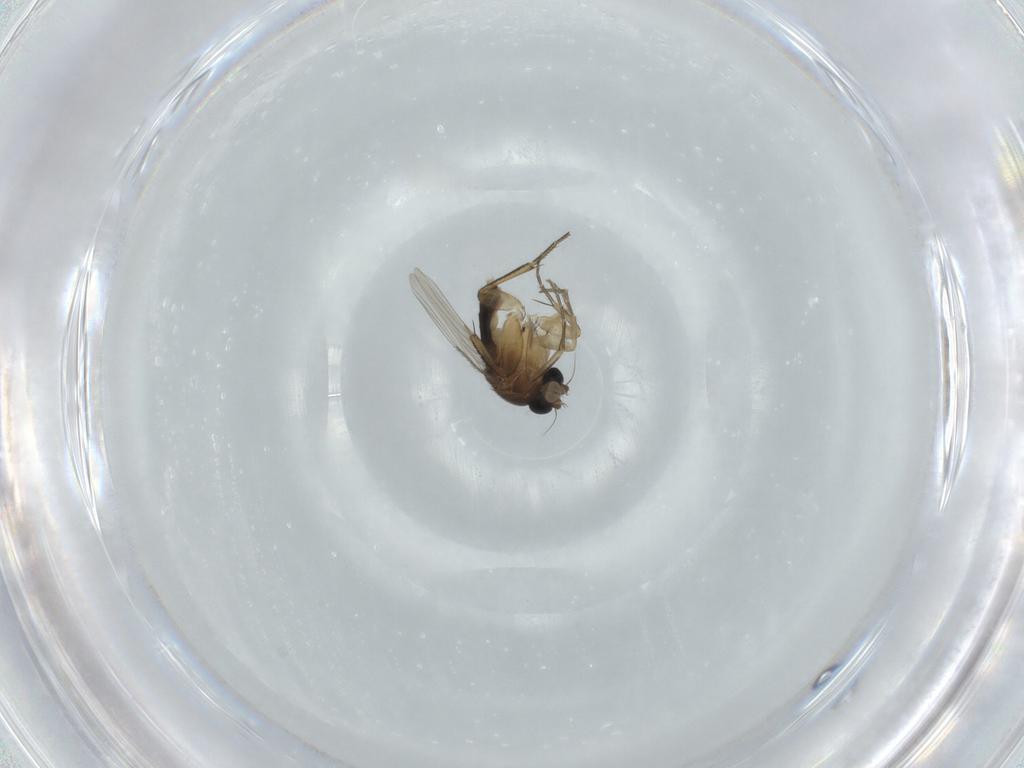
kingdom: Animalia
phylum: Arthropoda
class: Insecta
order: Diptera
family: Phoridae
